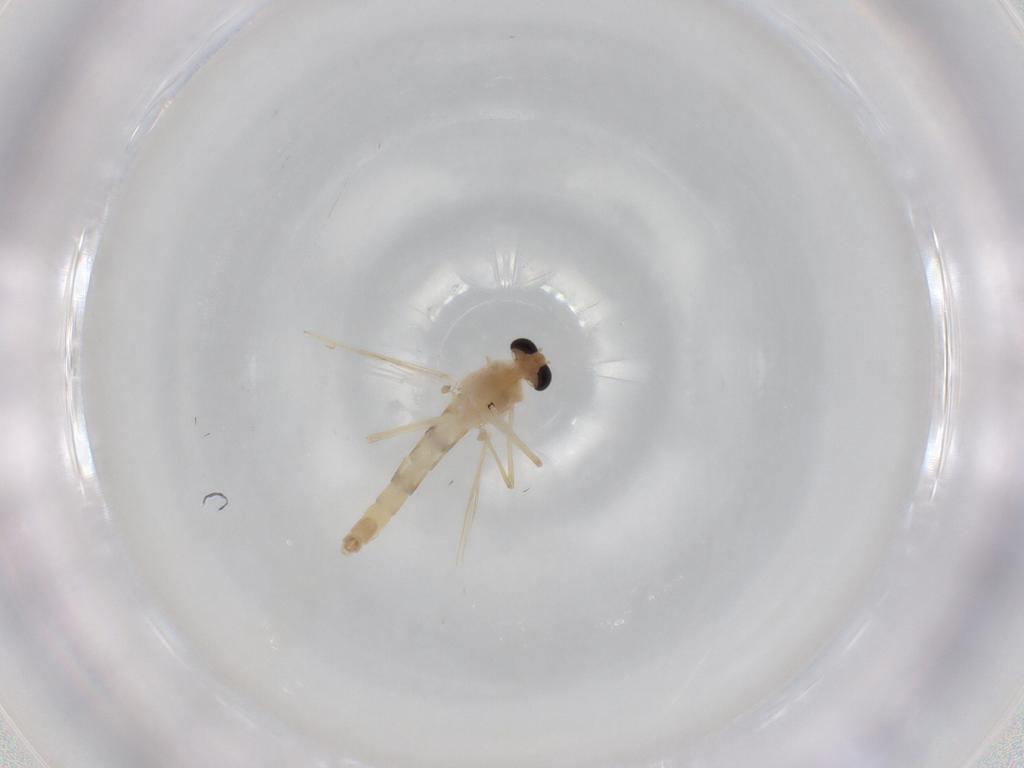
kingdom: Animalia
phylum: Arthropoda
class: Insecta
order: Diptera
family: Chironomidae
